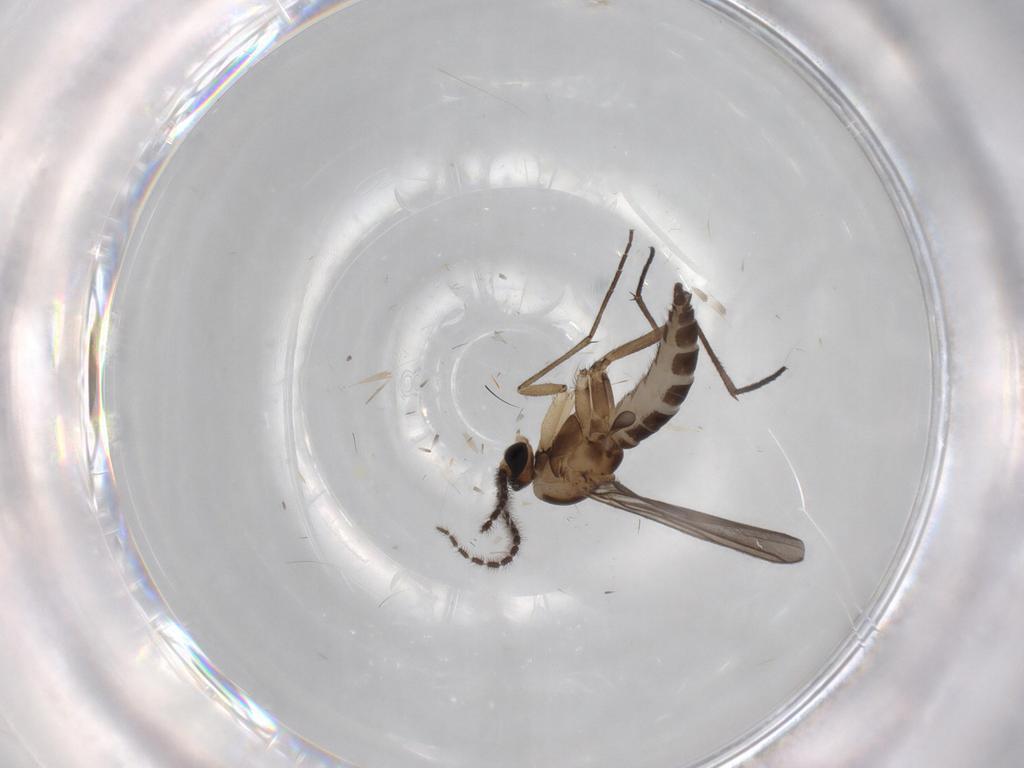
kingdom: Animalia
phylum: Arthropoda
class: Insecta
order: Diptera
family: Sciaridae
